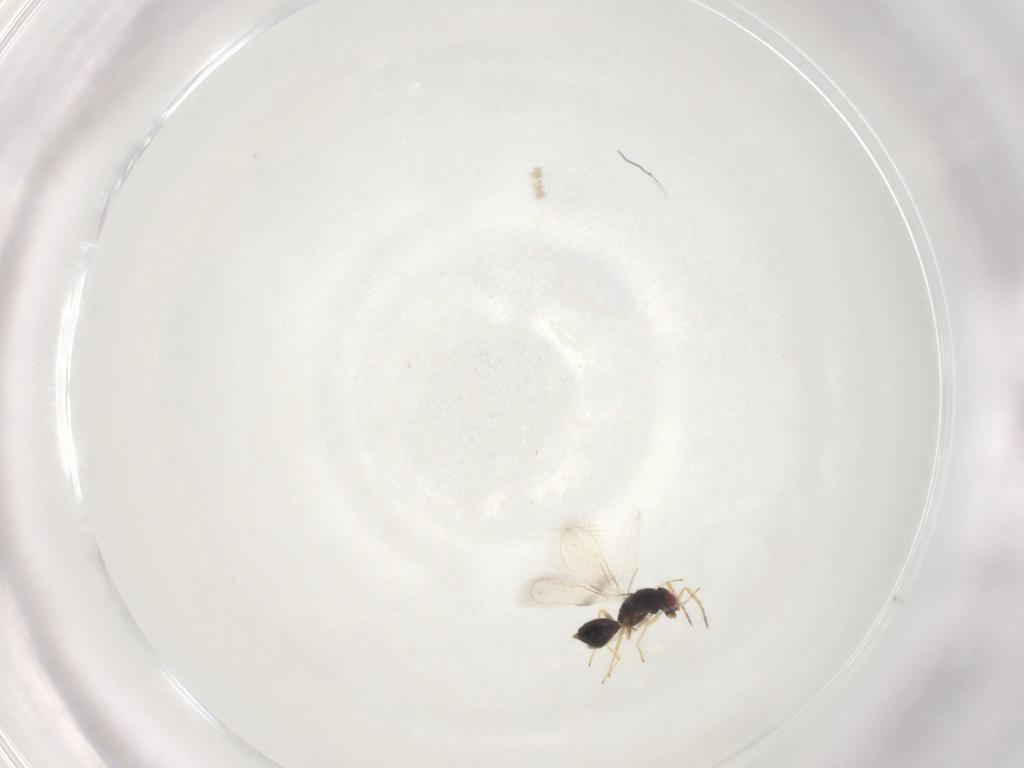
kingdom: Animalia
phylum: Arthropoda
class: Insecta
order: Hymenoptera
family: Eulophidae
